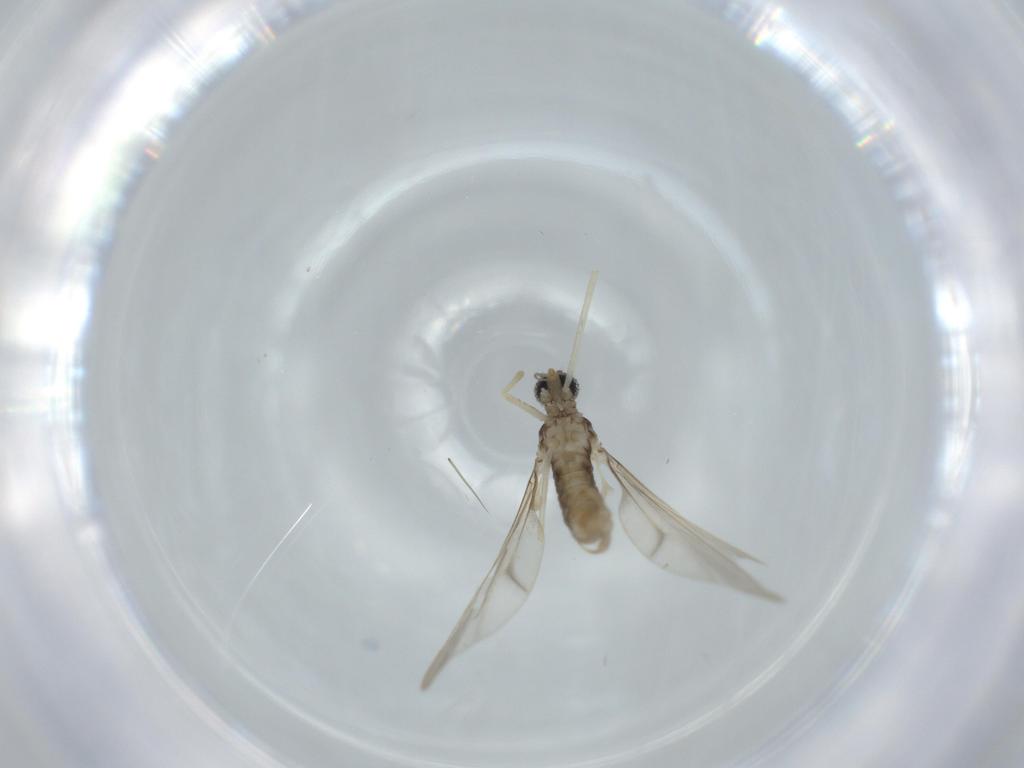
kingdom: Animalia
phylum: Arthropoda
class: Insecta
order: Diptera
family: Cecidomyiidae
